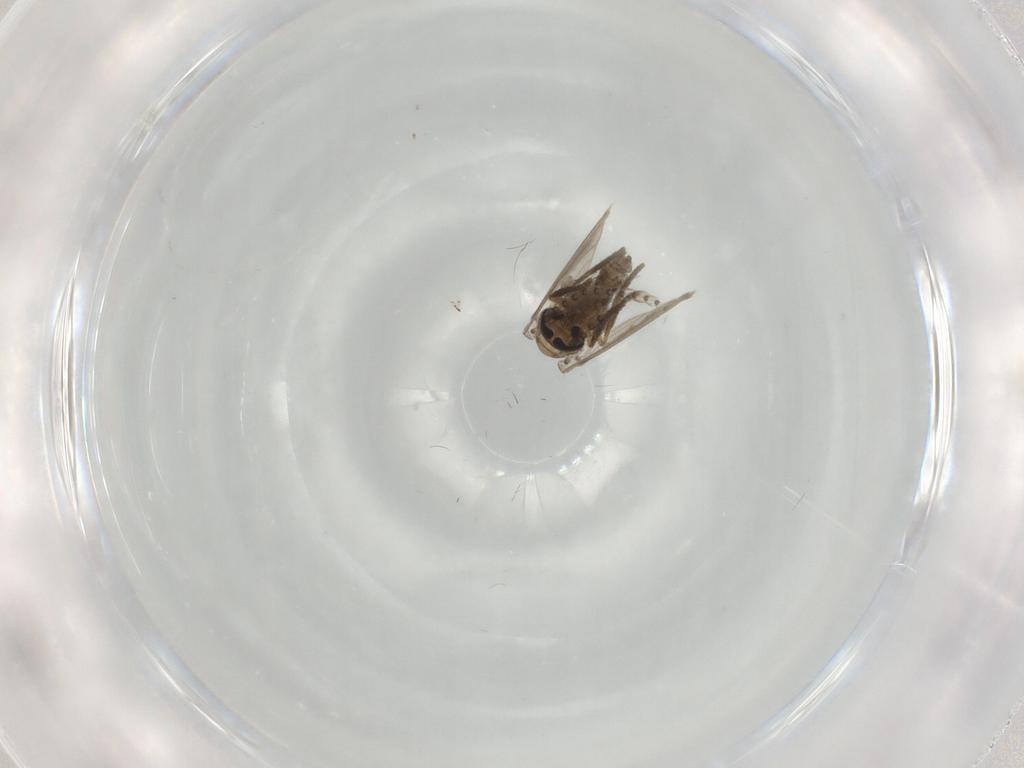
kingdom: Animalia
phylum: Arthropoda
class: Insecta
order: Diptera
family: Psychodidae
